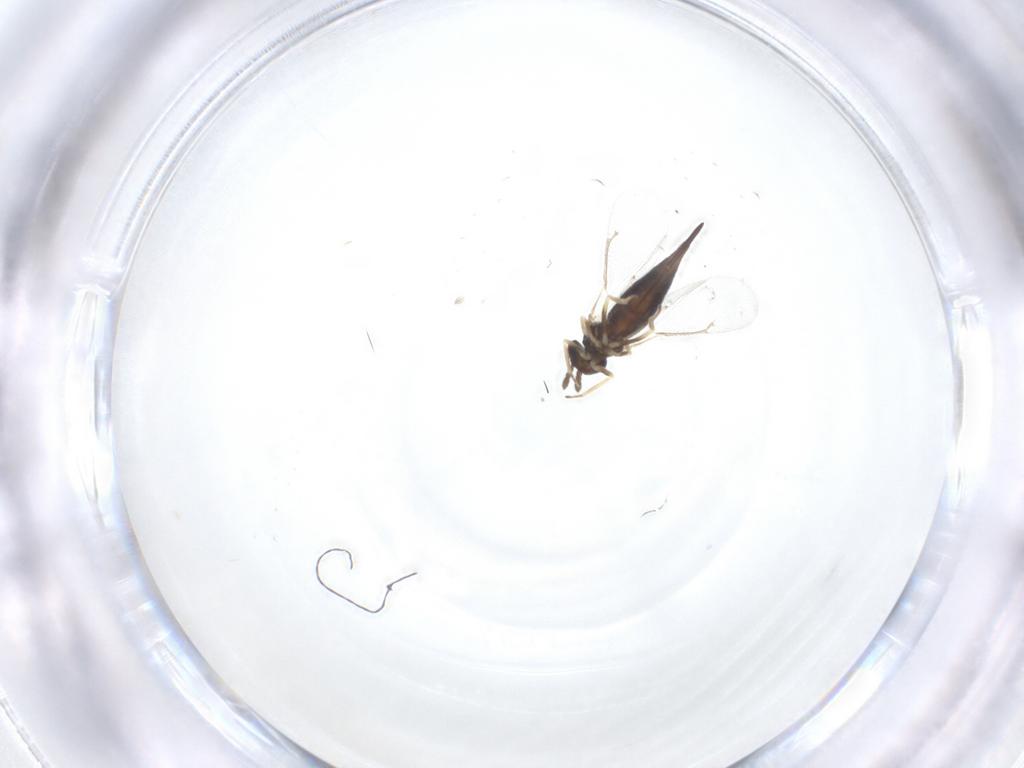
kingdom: Animalia
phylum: Arthropoda
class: Insecta
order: Hymenoptera
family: Eulophidae
